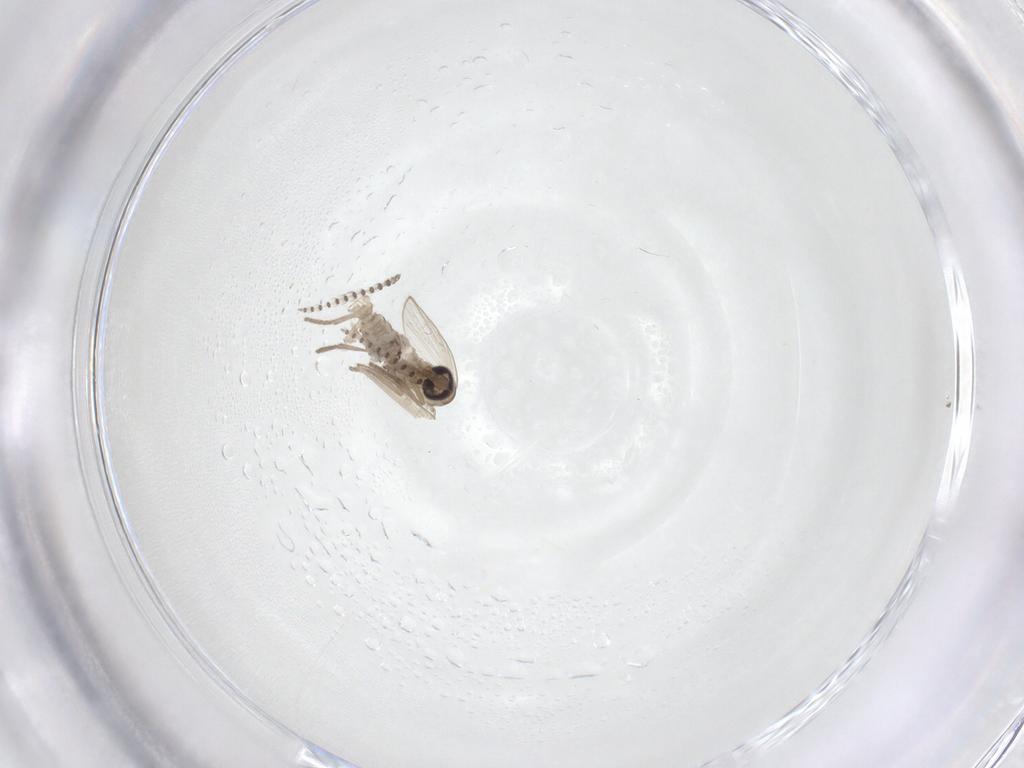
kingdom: Animalia
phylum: Arthropoda
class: Insecta
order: Diptera
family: Psychodidae
